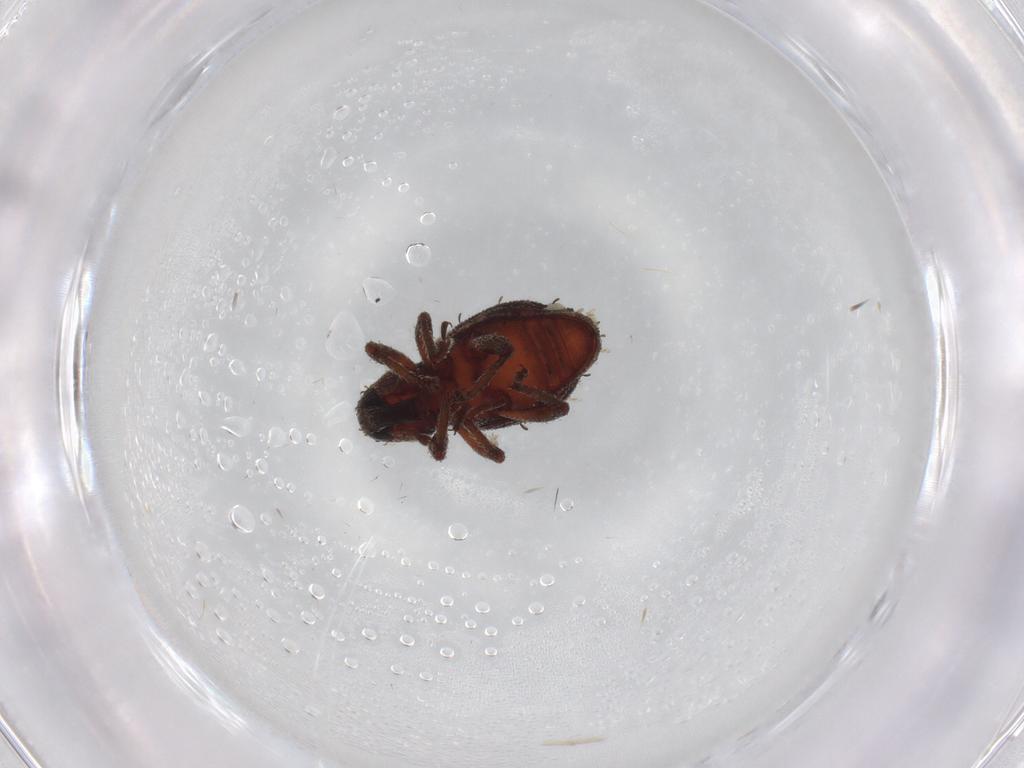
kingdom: Animalia
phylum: Arthropoda
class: Insecta
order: Coleoptera
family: Curculionidae
